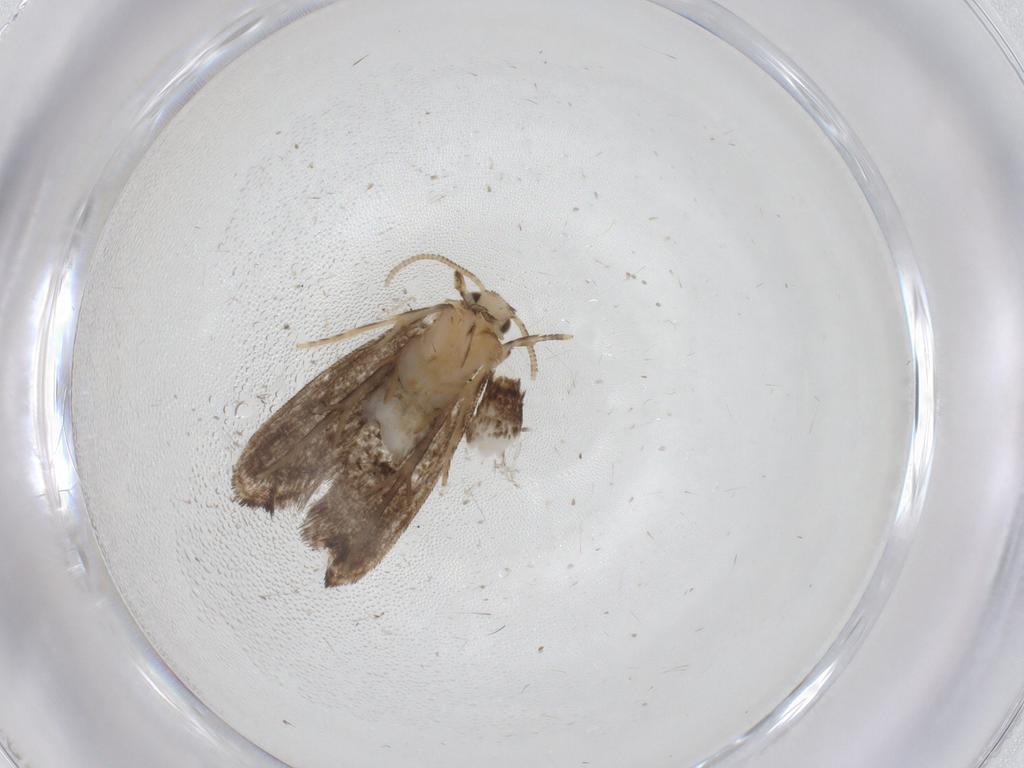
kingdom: Animalia
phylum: Arthropoda
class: Insecta
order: Lepidoptera
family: Dryadaulidae
